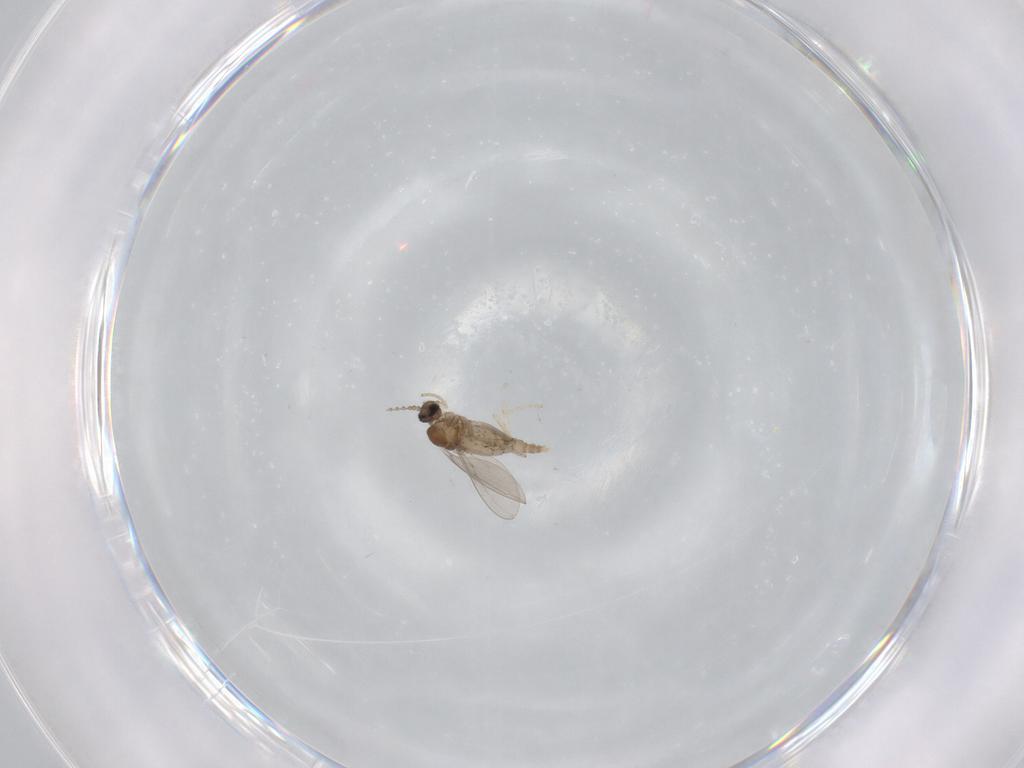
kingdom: Animalia
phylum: Arthropoda
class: Insecta
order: Diptera
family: Cecidomyiidae
